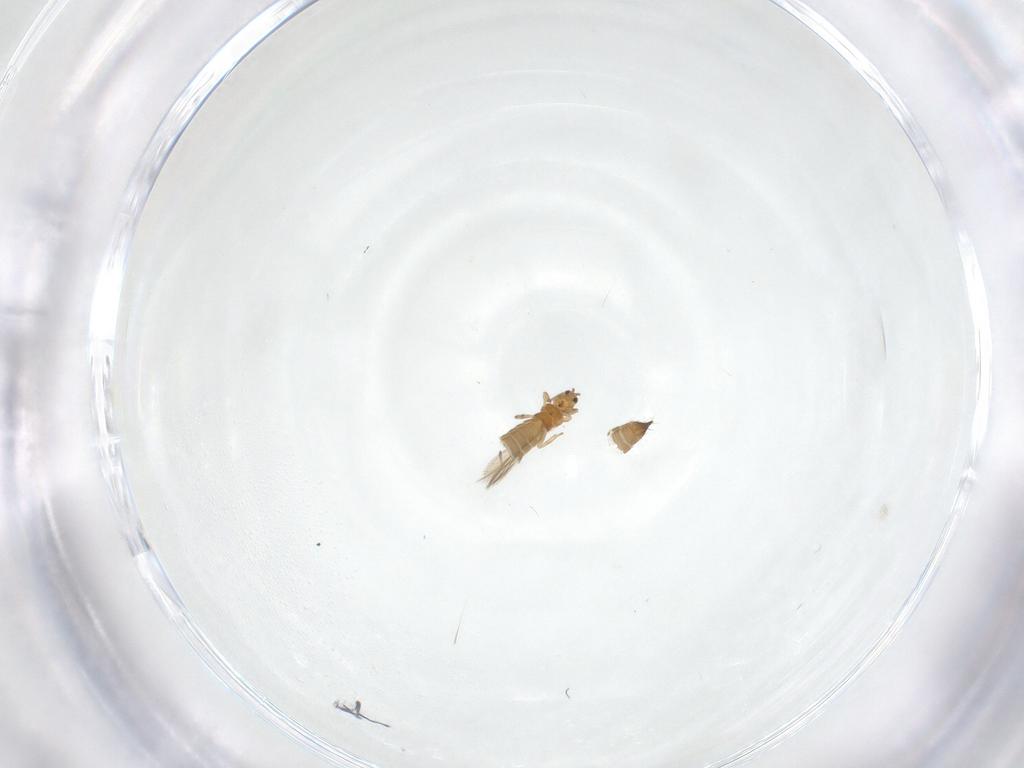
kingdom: Animalia
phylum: Arthropoda
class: Insecta
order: Thysanoptera
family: Thripidae
